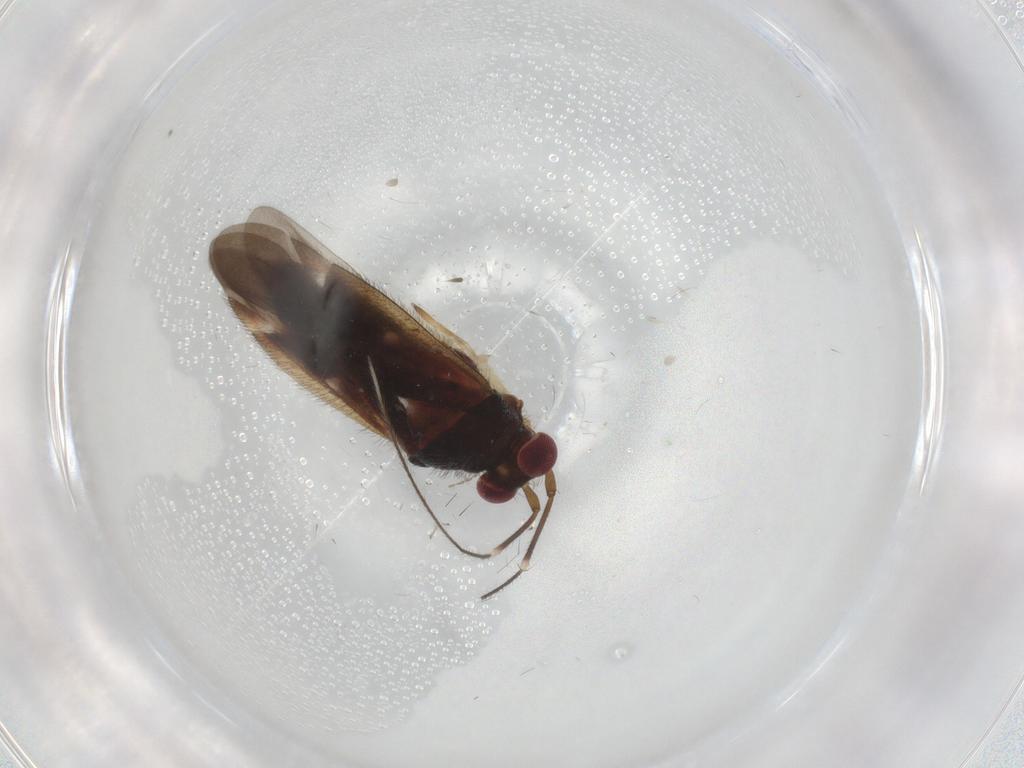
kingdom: Animalia
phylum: Arthropoda
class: Insecta
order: Hemiptera
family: Miridae
